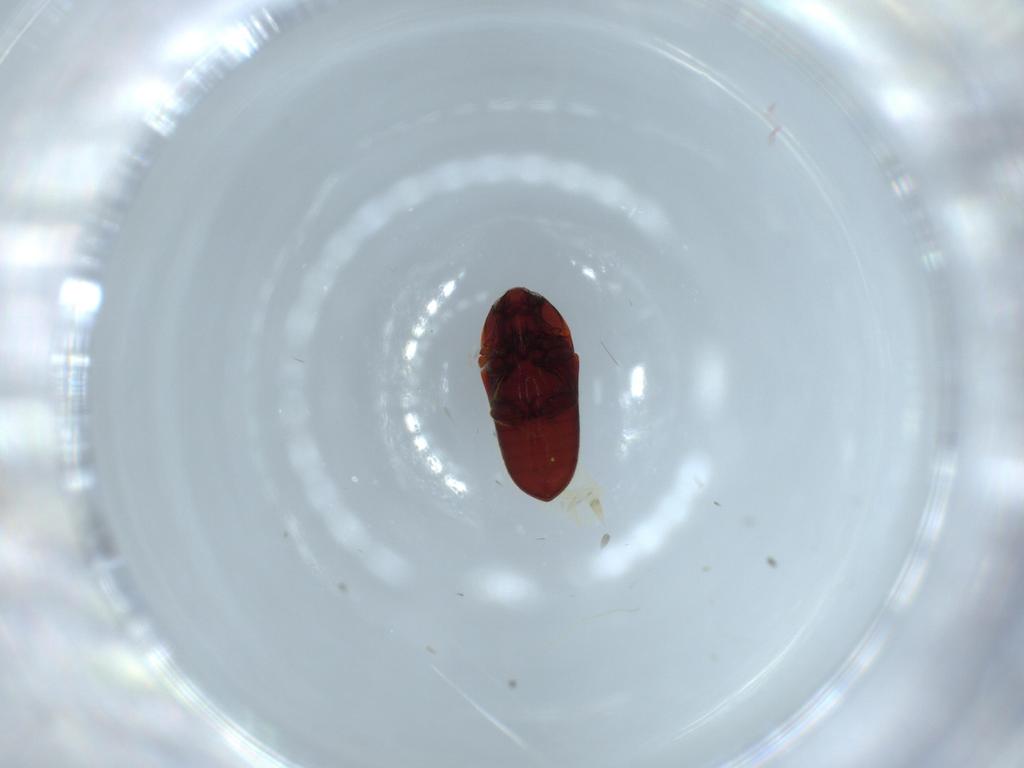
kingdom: Animalia
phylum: Arthropoda
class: Insecta
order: Coleoptera
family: Throscidae
